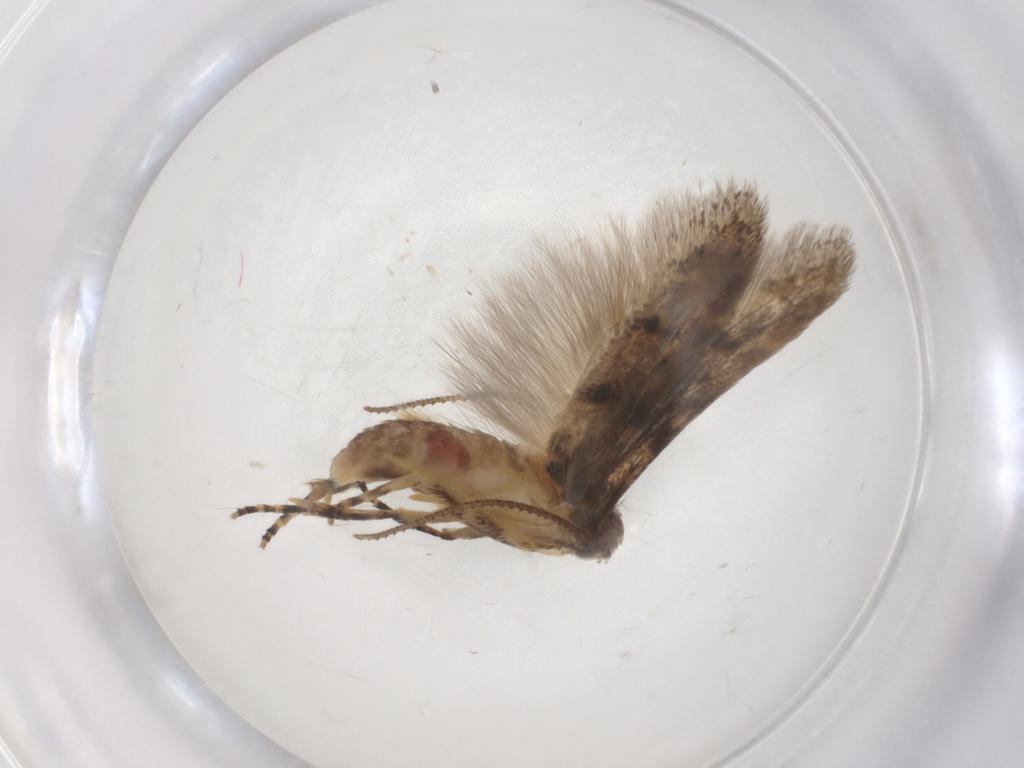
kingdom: Animalia
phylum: Arthropoda
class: Insecta
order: Lepidoptera
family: Gelechiidae
